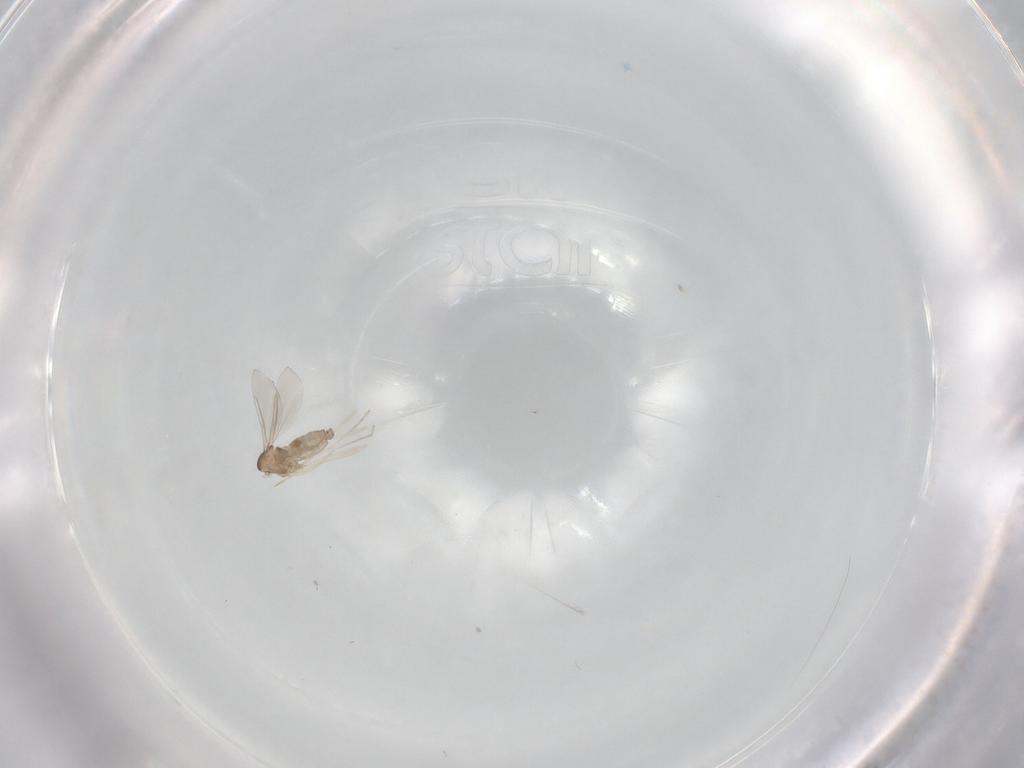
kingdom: Animalia
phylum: Arthropoda
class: Insecta
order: Diptera
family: Cecidomyiidae
